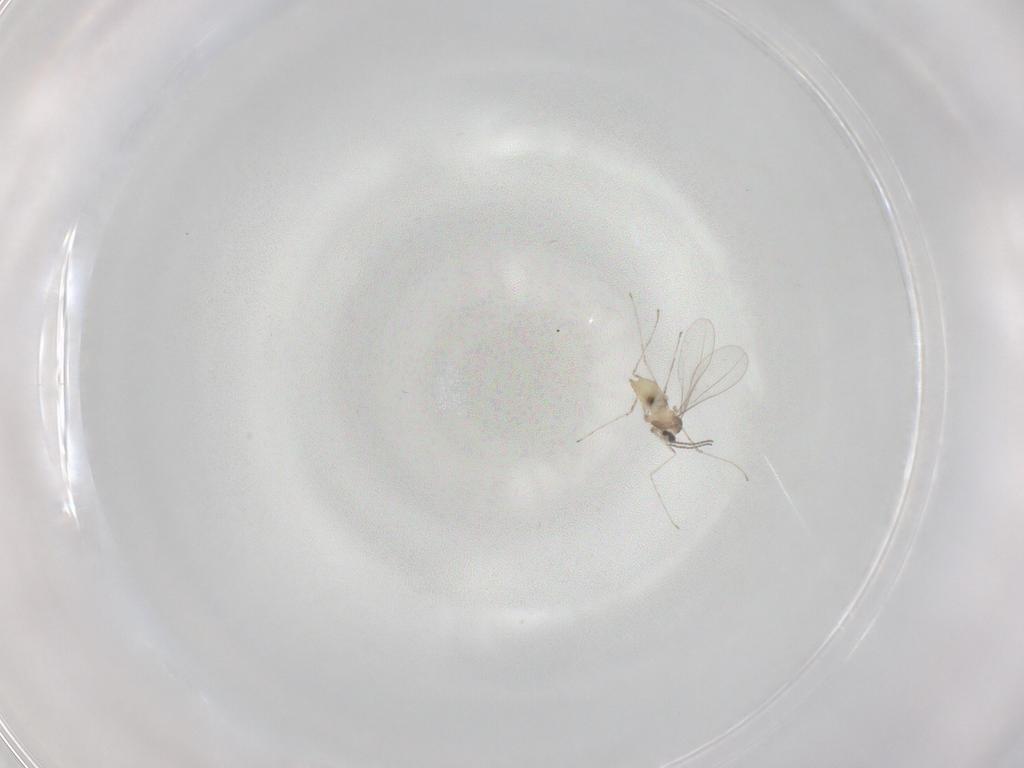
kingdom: Animalia
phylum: Arthropoda
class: Insecta
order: Diptera
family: Cecidomyiidae
